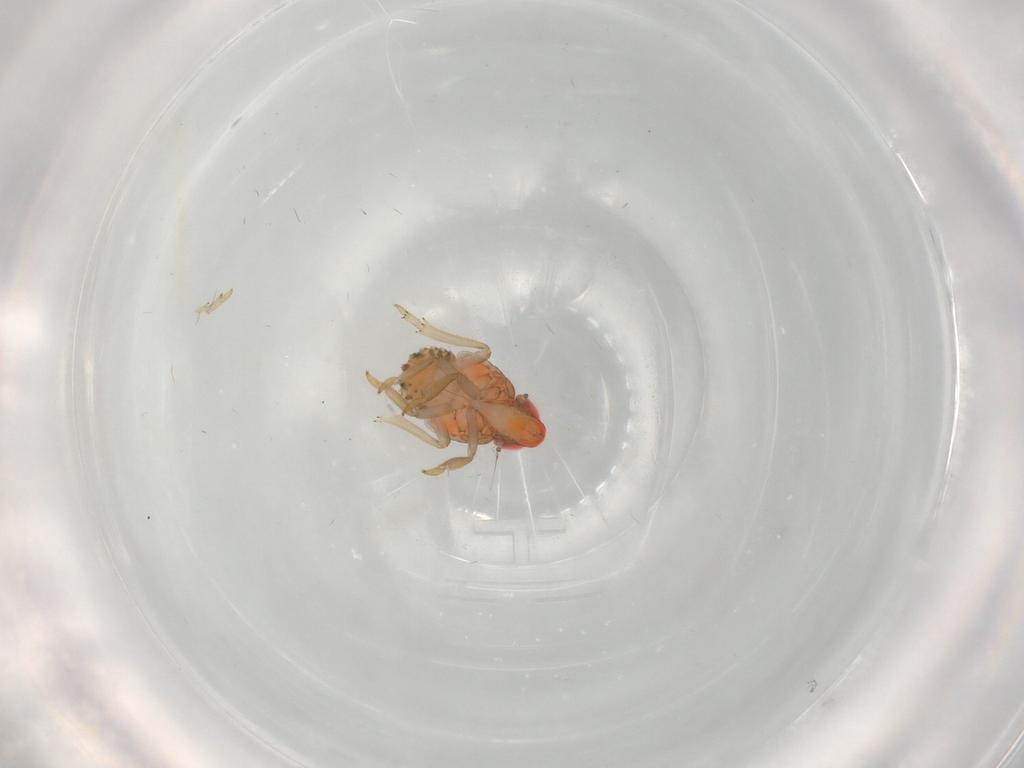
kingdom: Animalia
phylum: Arthropoda
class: Insecta
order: Hemiptera
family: Fulgoroidea_incertae_sedis
